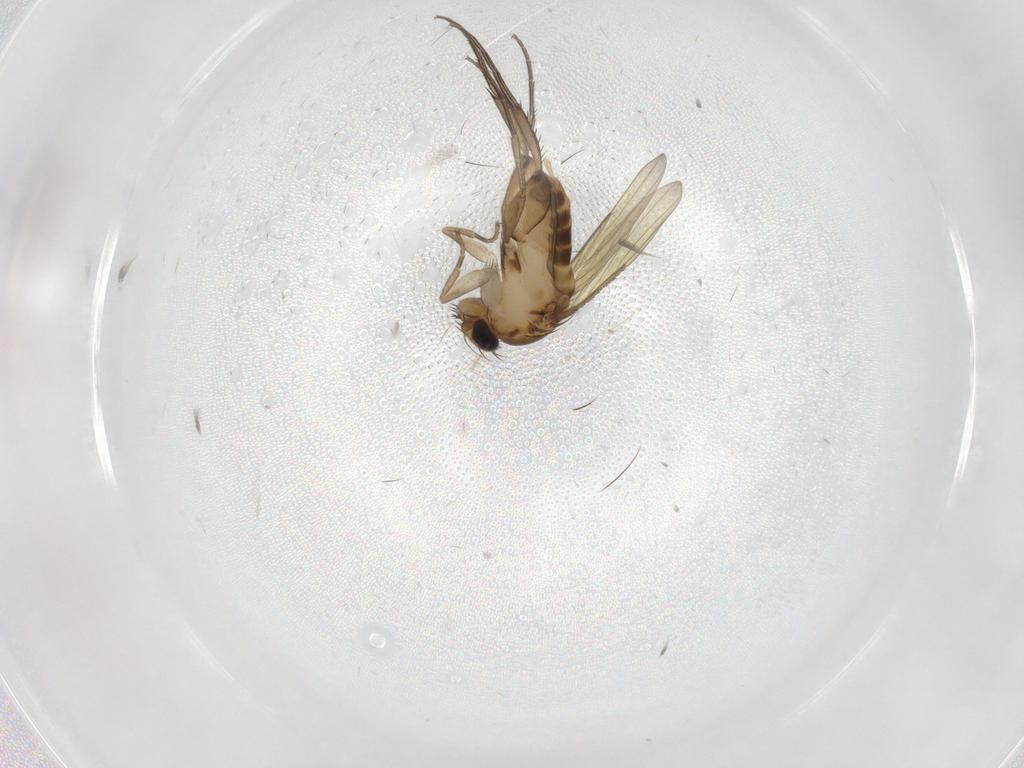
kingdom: Animalia
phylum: Arthropoda
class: Insecta
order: Diptera
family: Phoridae
